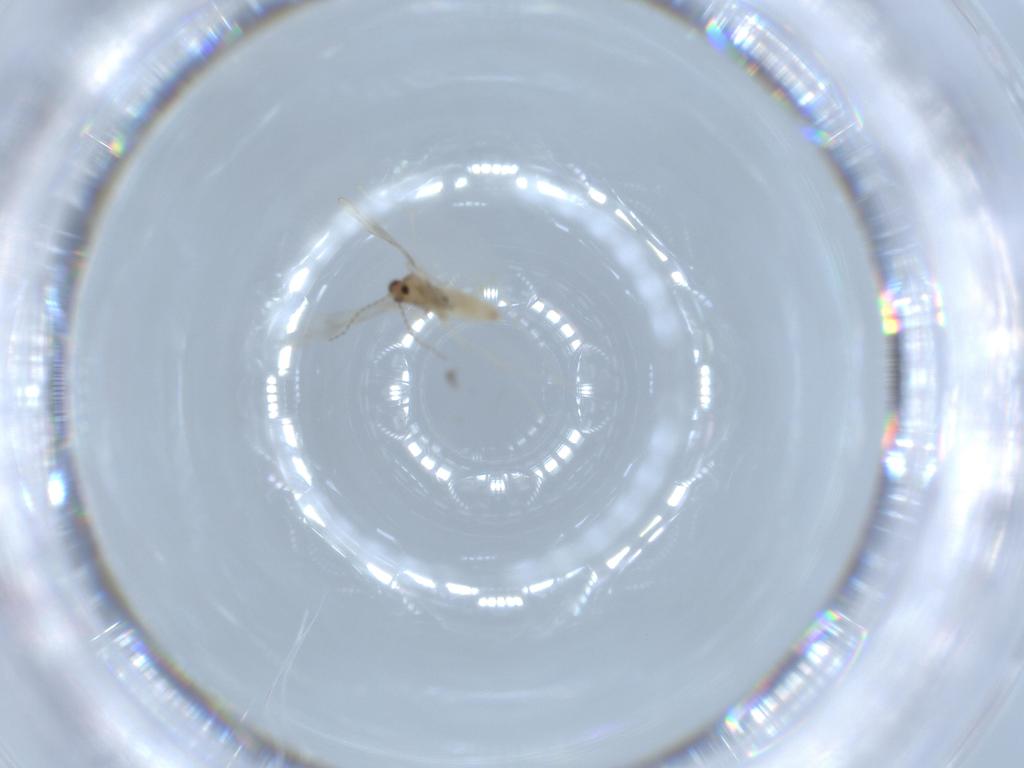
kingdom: Animalia
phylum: Arthropoda
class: Insecta
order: Diptera
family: Cecidomyiidae
